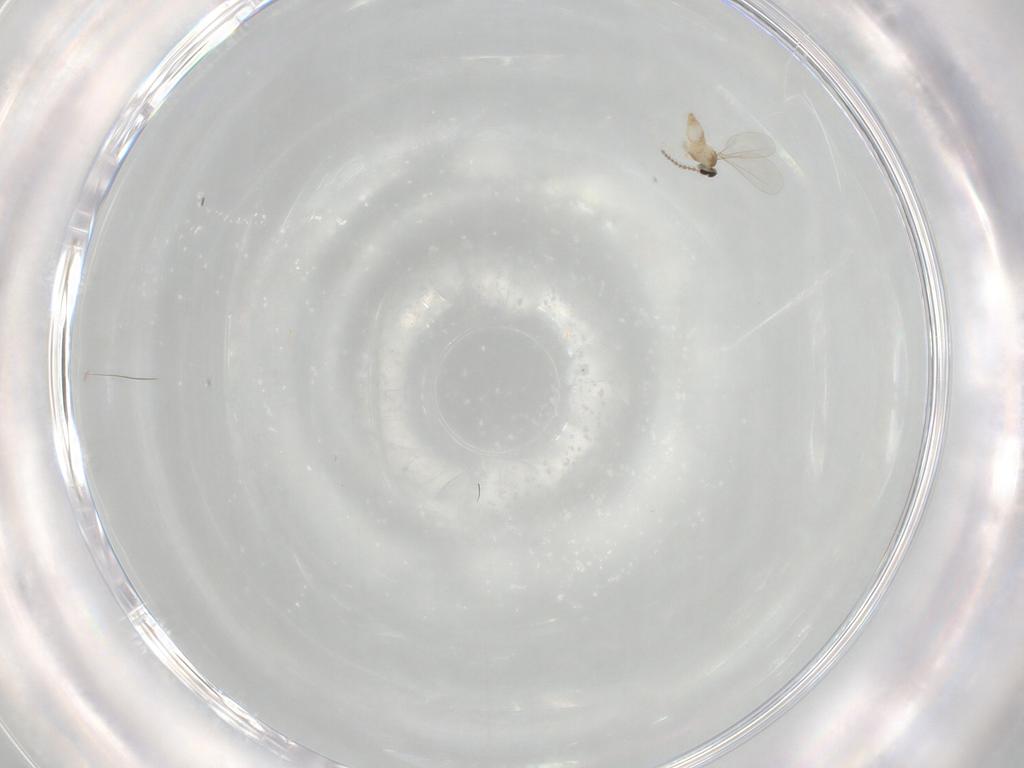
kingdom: Animalia
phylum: Arthropoda
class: Insecta
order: Diptera
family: Cecidomyiidae
